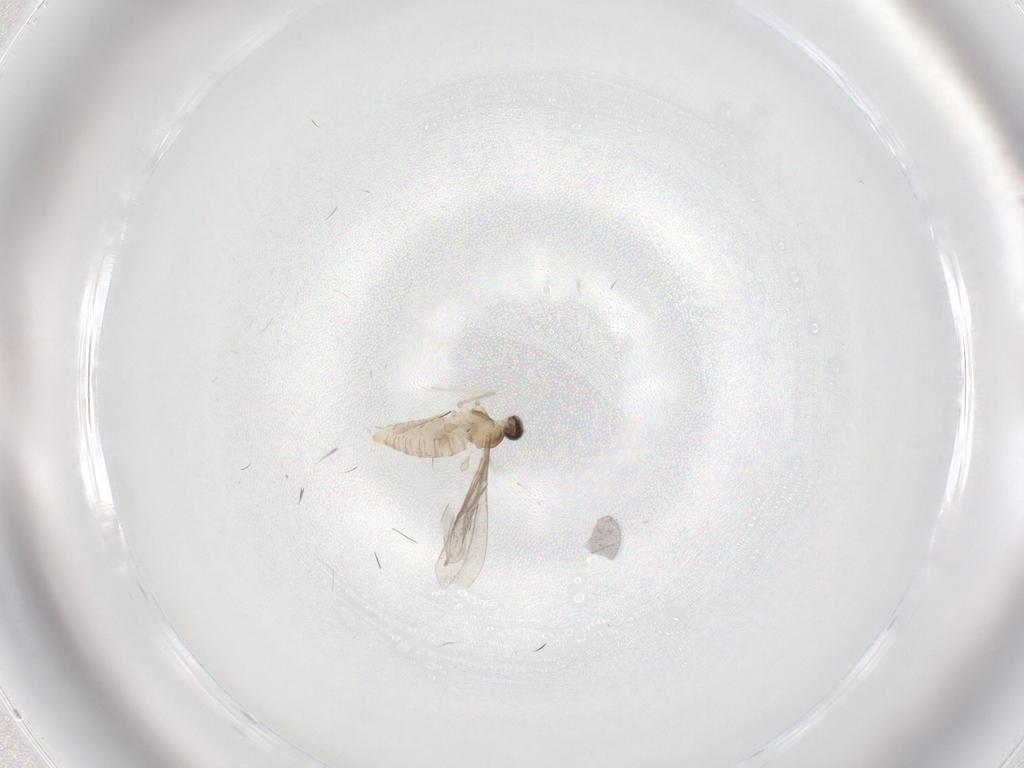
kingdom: Animalia
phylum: Arthropoda
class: Insecta
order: Diptera
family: Cecidomyiidae
